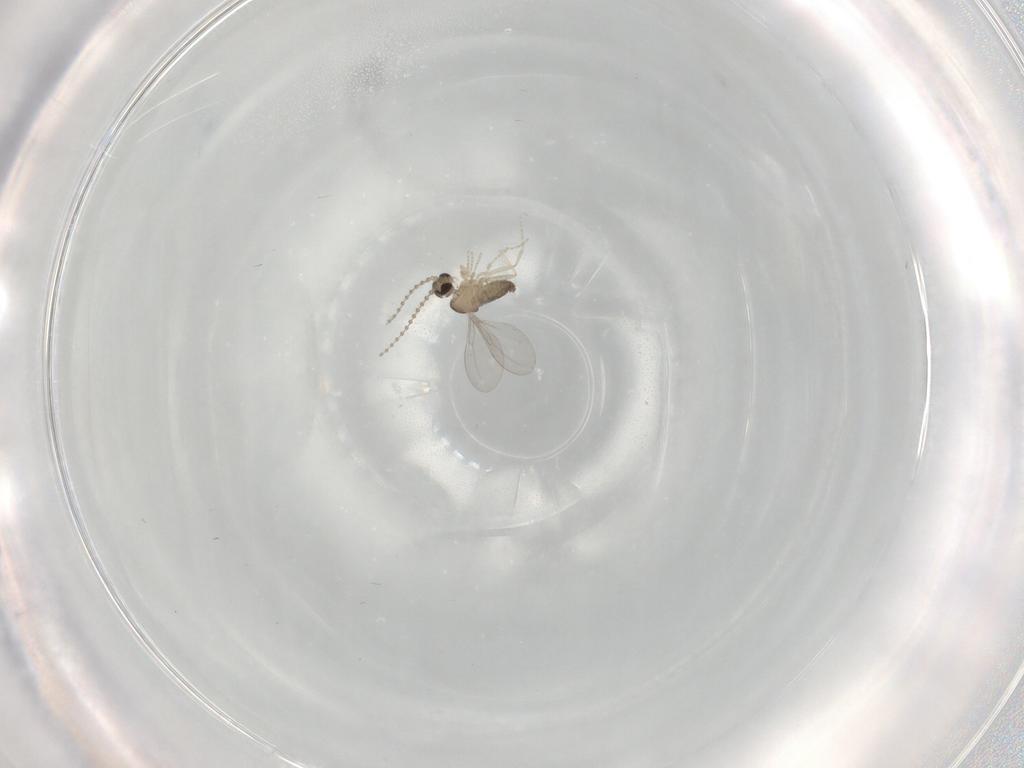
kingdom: Animalia
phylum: Arthropoda
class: Insecta
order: Diptera
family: Cecidomyiidae
